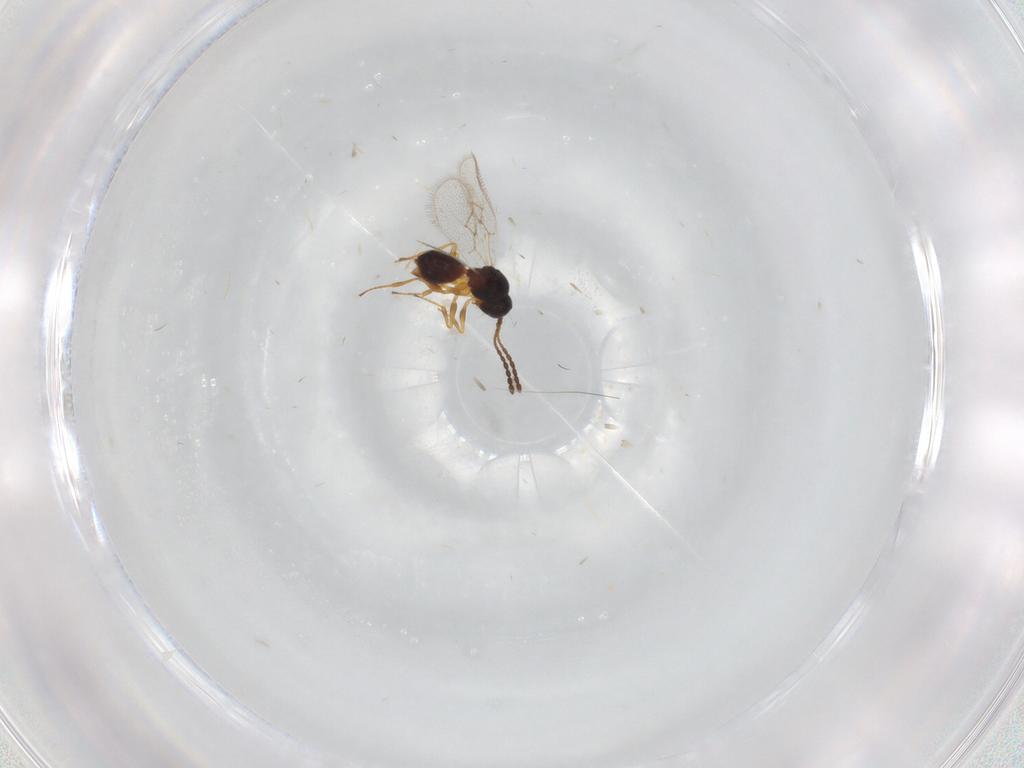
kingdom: Animalia
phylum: Arthropoda
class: Insecta
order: Hymenoptera
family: Figitidae
